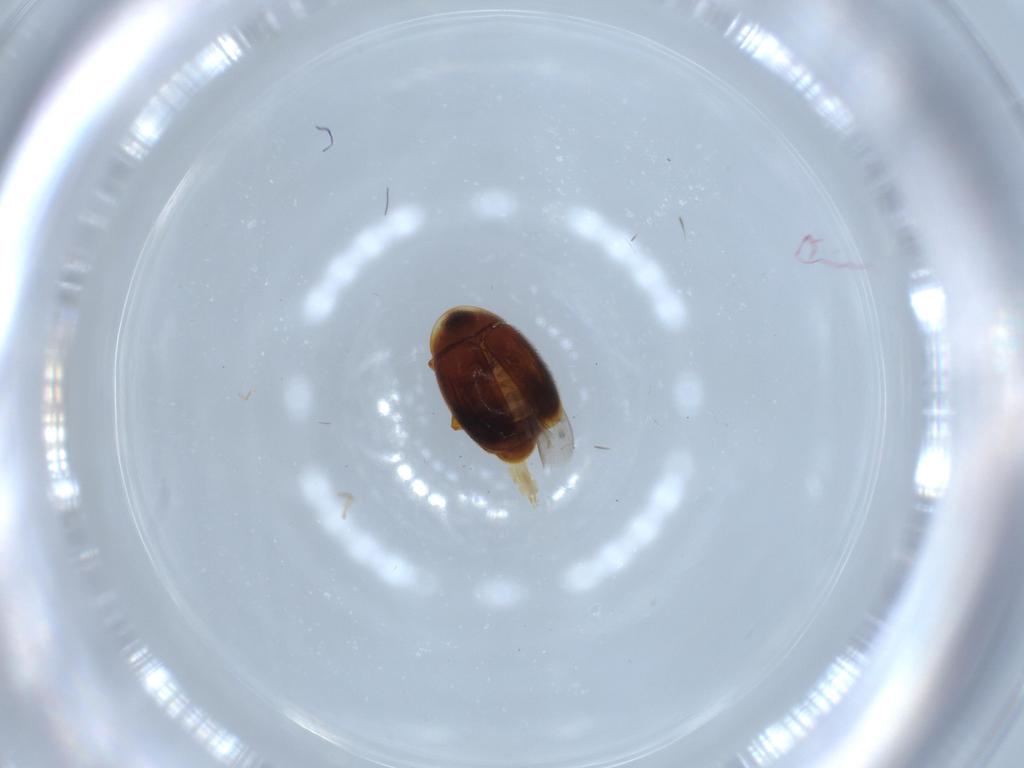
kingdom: Animalia
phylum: Arthropoda
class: Insecta
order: Coleoptera
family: Corylophidae
